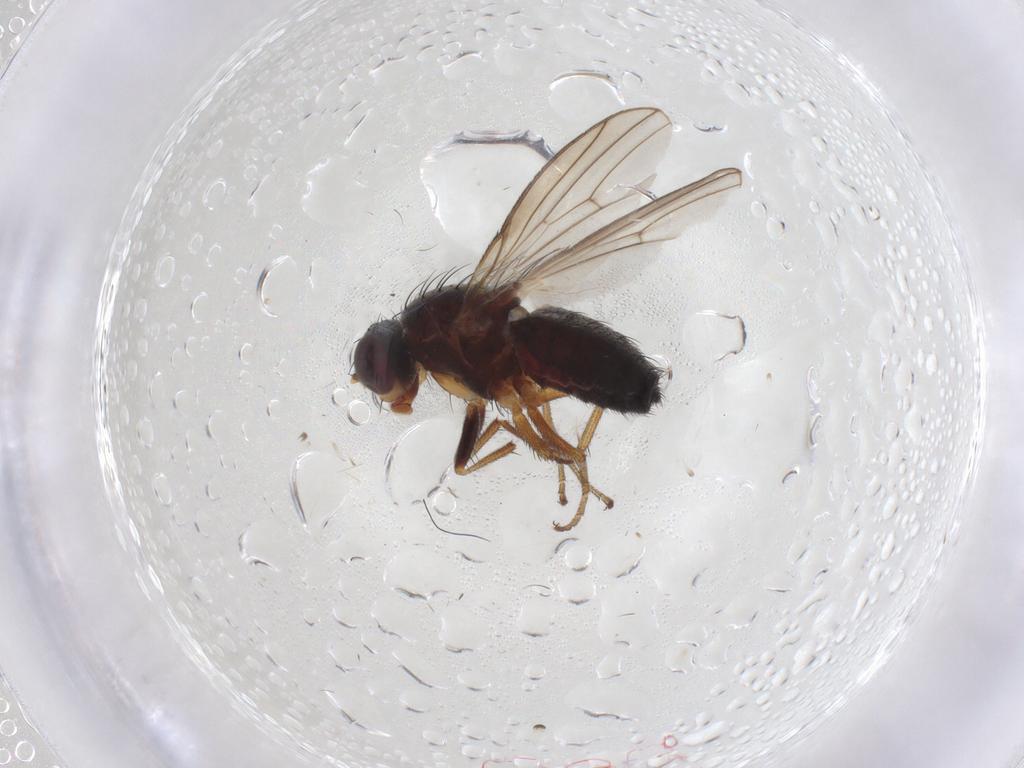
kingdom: Animalia
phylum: Arthropoda
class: Insecta
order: Diptera
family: Heleomyzidae
